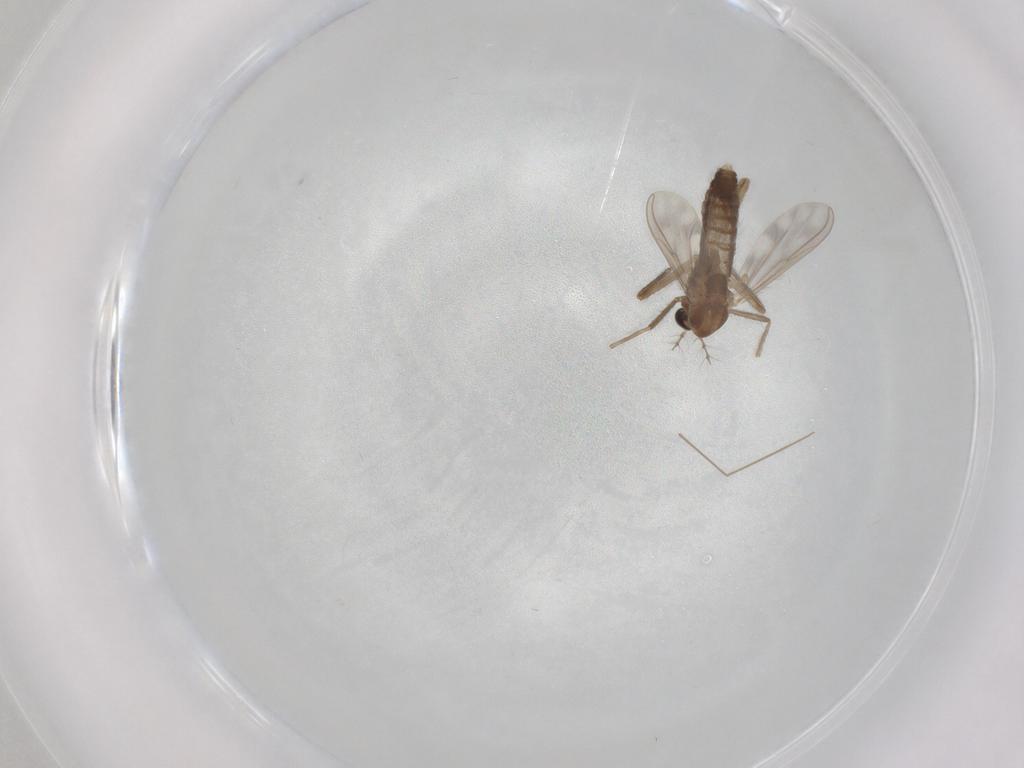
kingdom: Animalia
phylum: Arthropoda
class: Insecta
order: Diptera
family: Chironomidae
